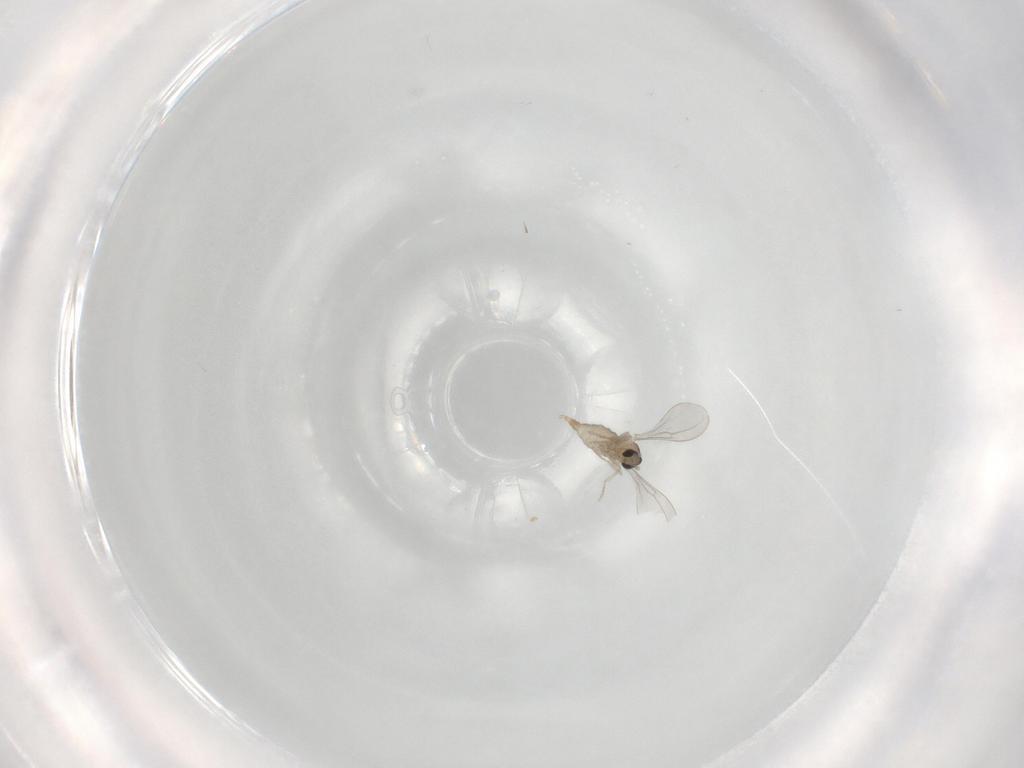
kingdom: Animalia
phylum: Arthropoda
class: Insecta
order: Diptera
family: Cecidomyiidae
